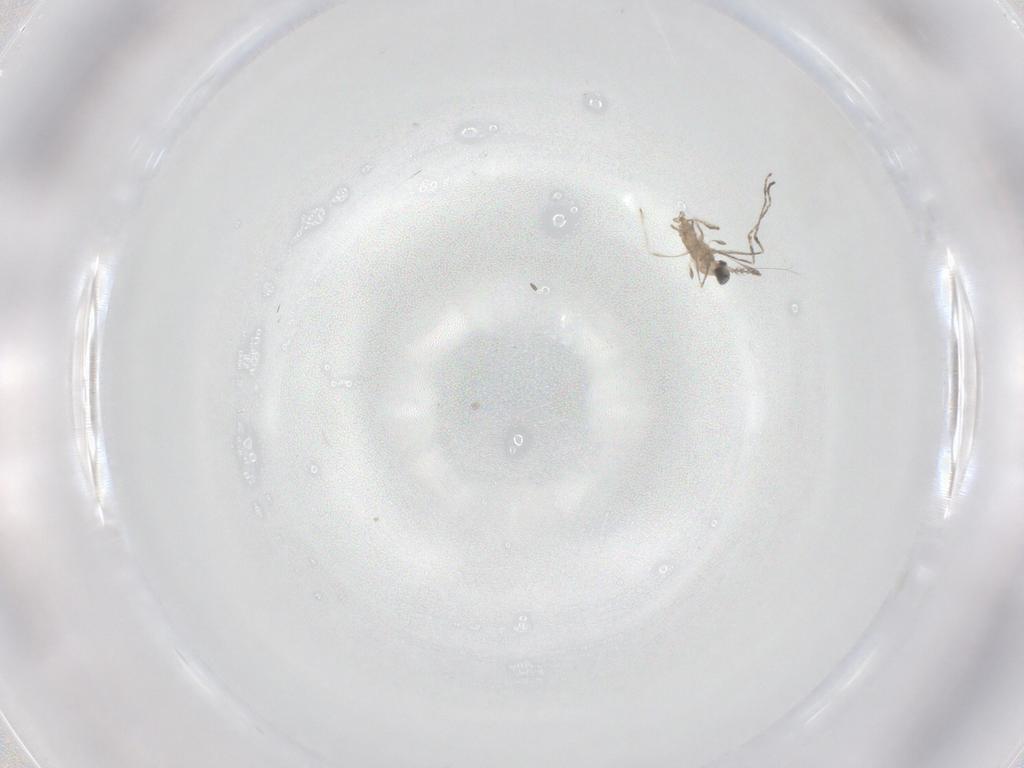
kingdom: Animalia
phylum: Arthropoda
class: Insecta
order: Diptera
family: Cecidomyiidae
